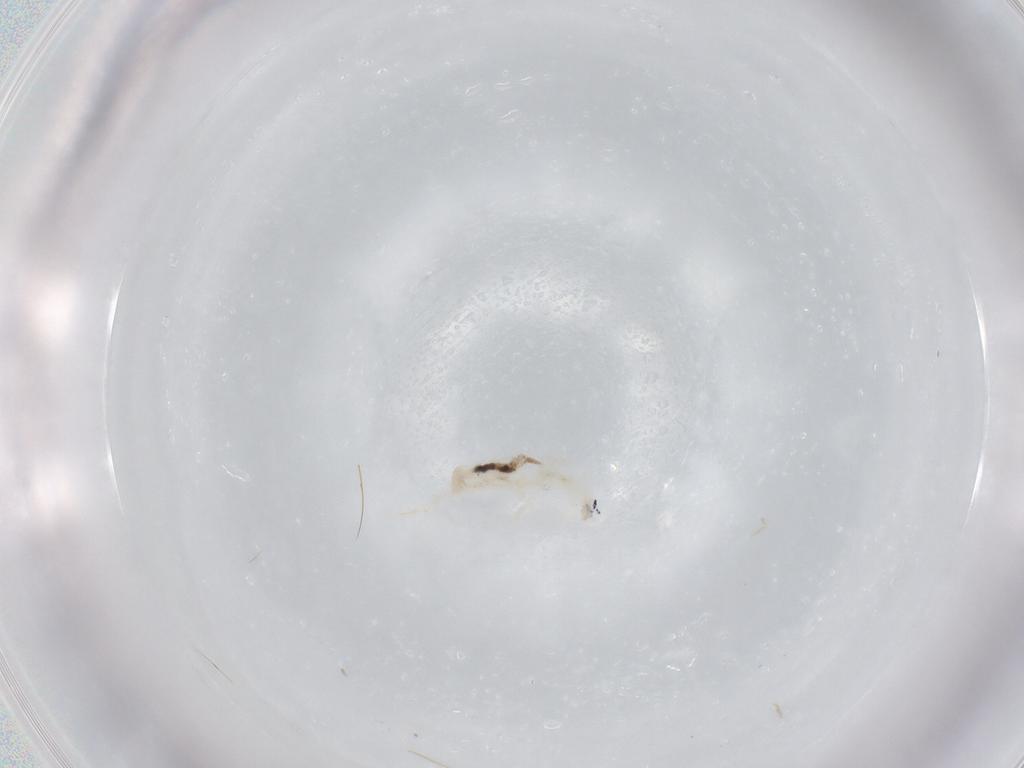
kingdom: Animalia
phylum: Arthropoda
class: Collembola
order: Entomobryomorpha
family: Entomobryidae
